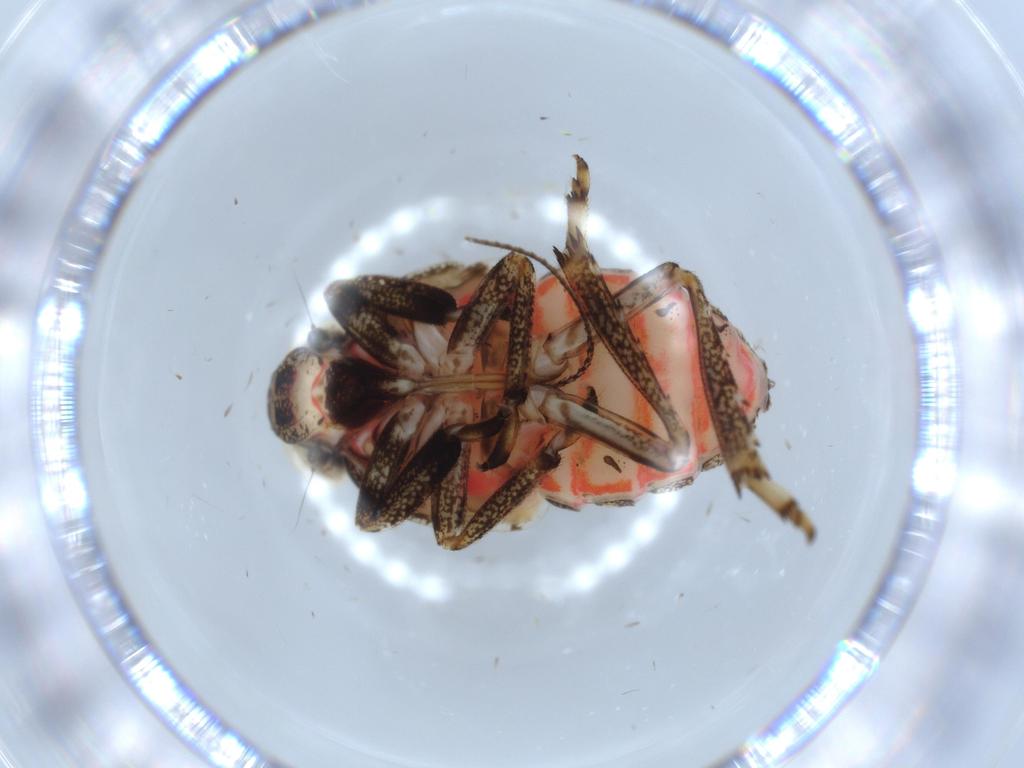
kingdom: Animalia
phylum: Arthropoda
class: Insecta
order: Hemiptera
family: Issidae
